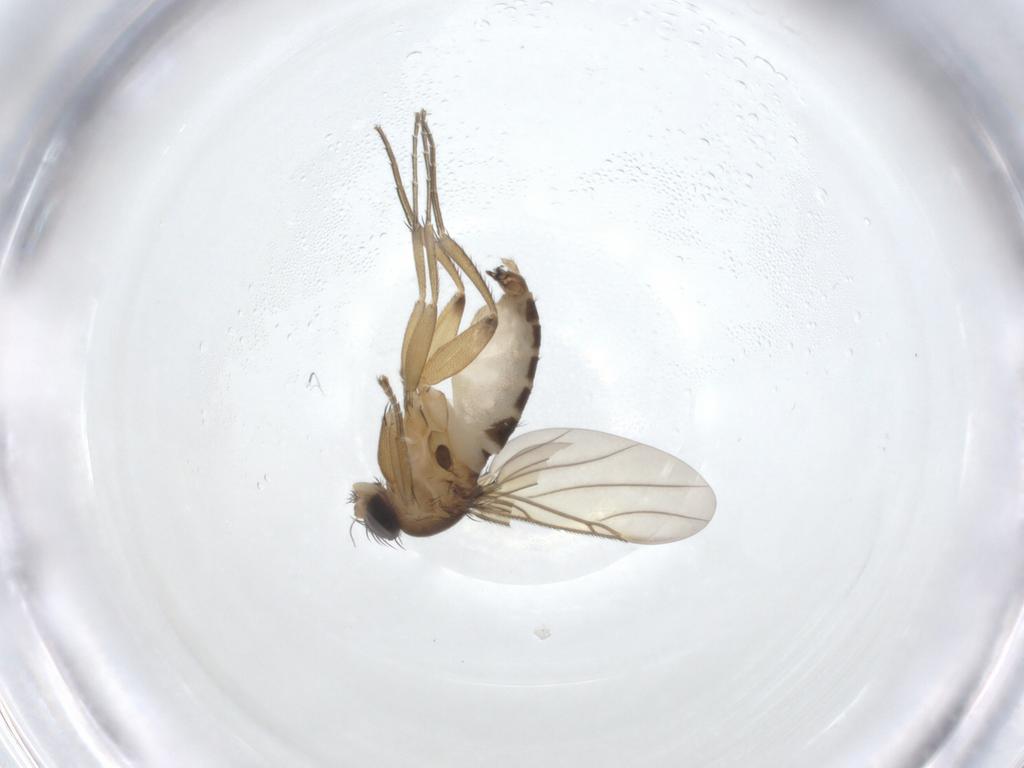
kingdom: Animalia
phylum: Arthropoda
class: Insecta
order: Diptera
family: Phoridae
